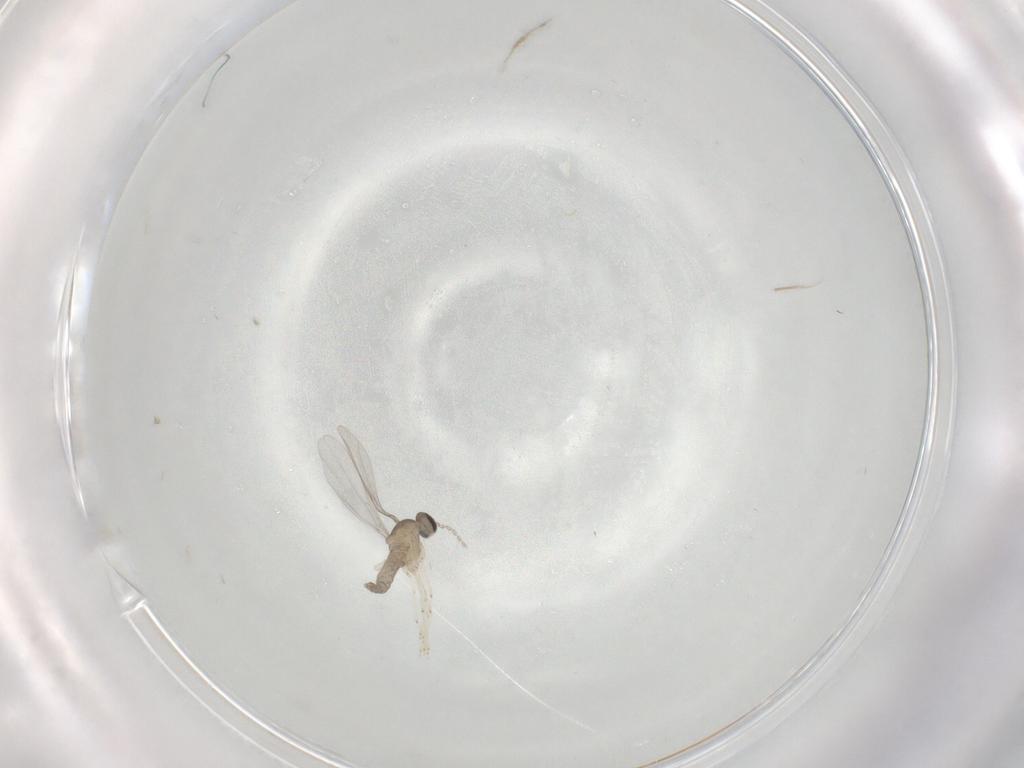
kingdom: Animalia
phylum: Arthropoda
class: Insecta
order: Diptera
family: Cecidomyiidae
